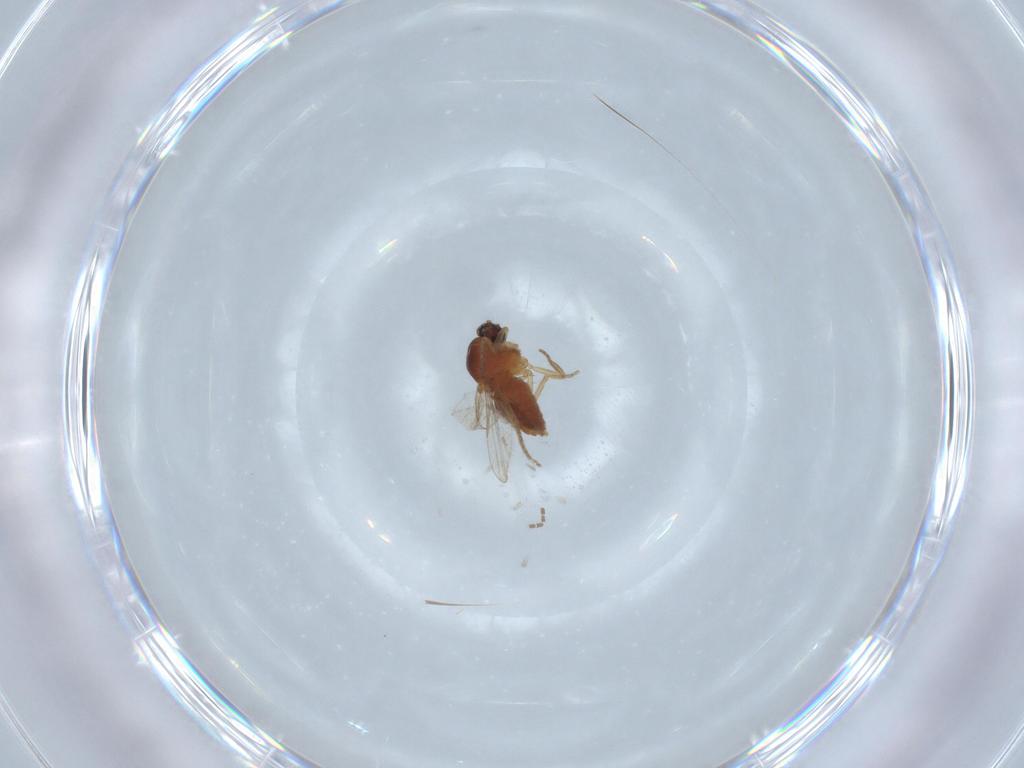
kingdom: Animalia
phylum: Arthropoda
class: Insecta
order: Diptera
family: Ceratopogonidae
